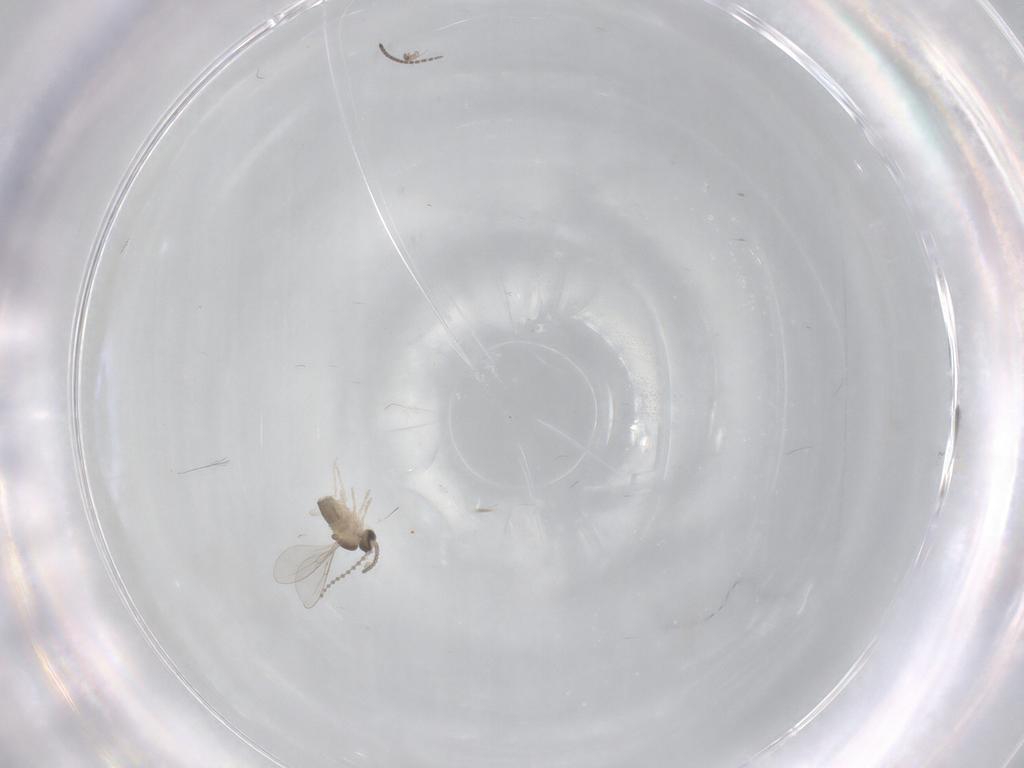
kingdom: Animalia
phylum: Arthropoda
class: Insecta
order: Diptera
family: Cecidomyiidae
